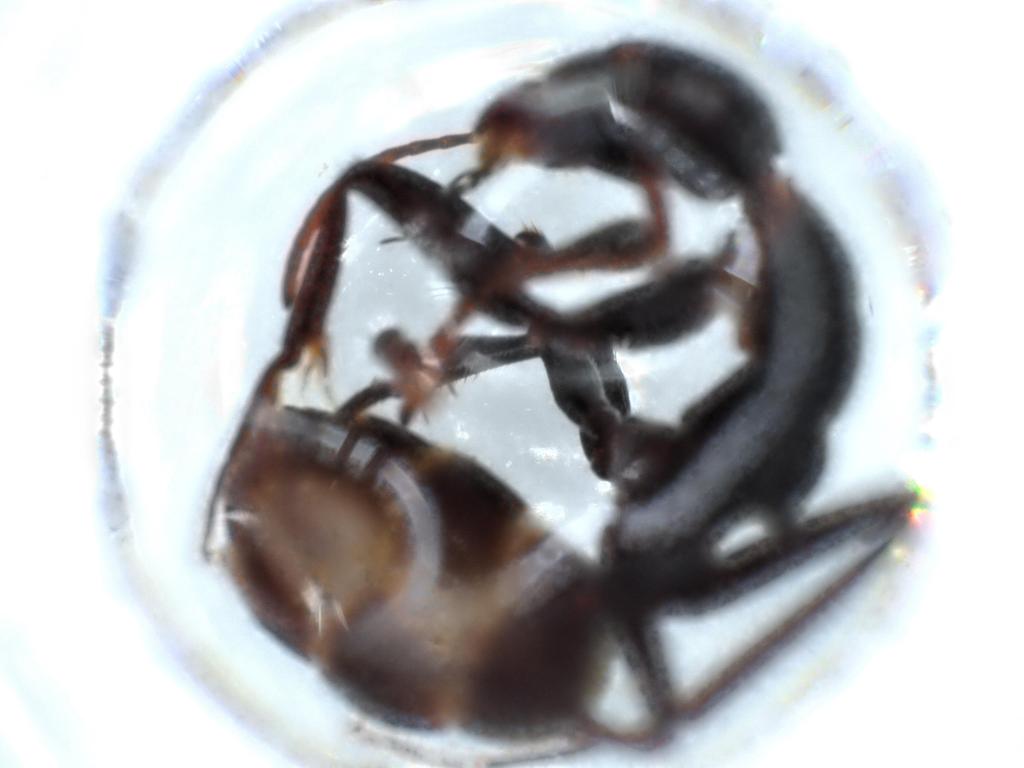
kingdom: Animalia
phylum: Arthropoda
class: Insecta
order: Hymenoptera
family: Formicidae
